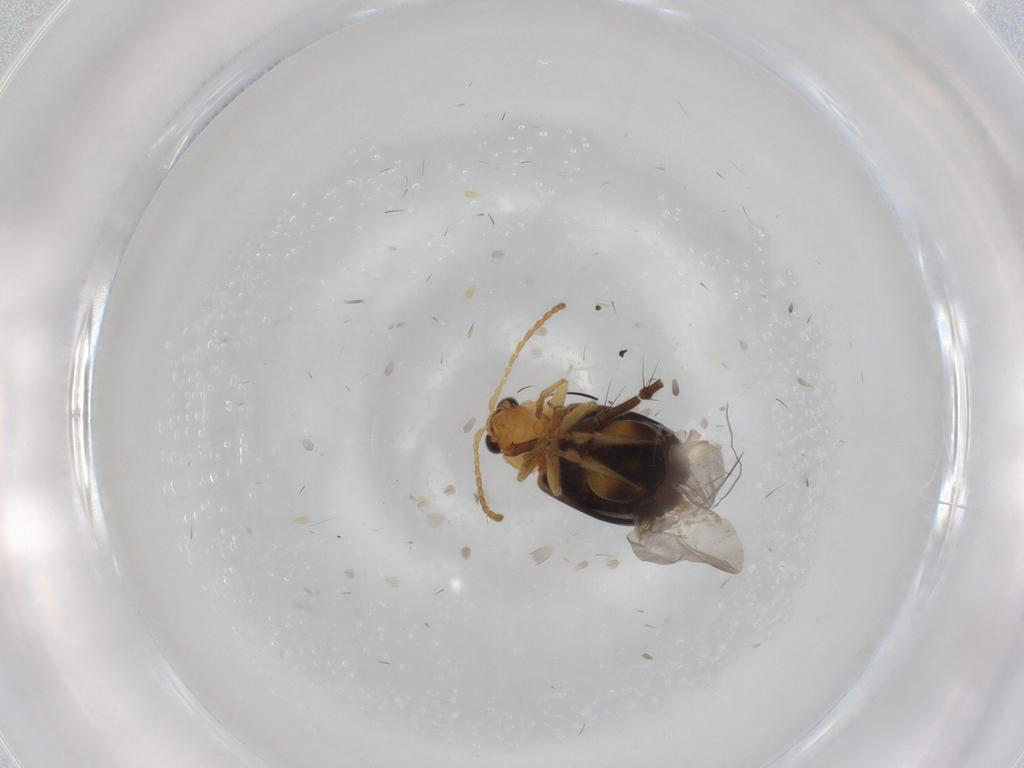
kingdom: Animalia
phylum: Arthropoda
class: Insecta
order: Coleoptera
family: Chrysomelidae
